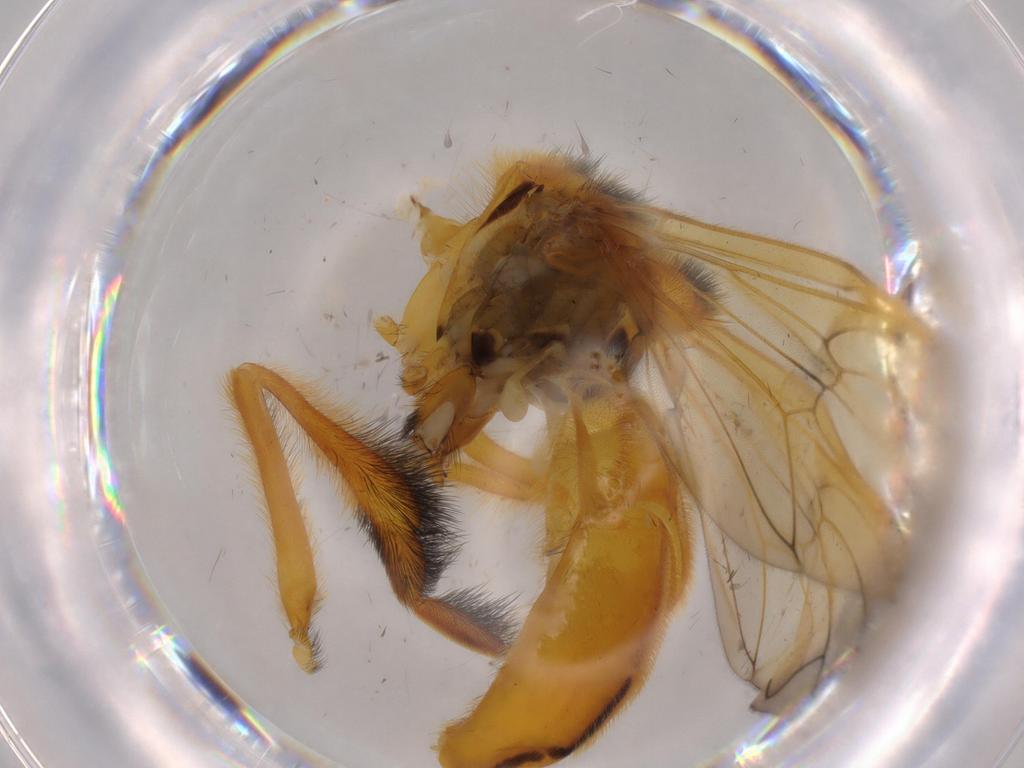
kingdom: Animalia
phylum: Arthropoda
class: Insecta
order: Diptera
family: Syrphidae
